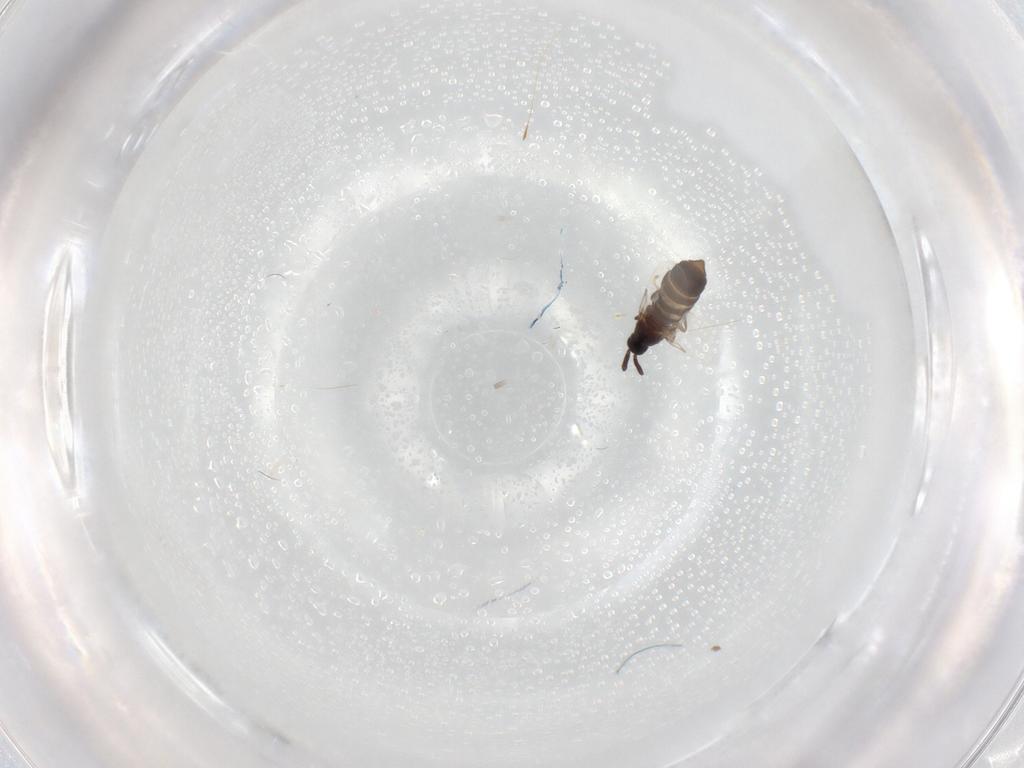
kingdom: Animalia
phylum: Arthropoda
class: Insecta
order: Diptera
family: Scatopsidae
